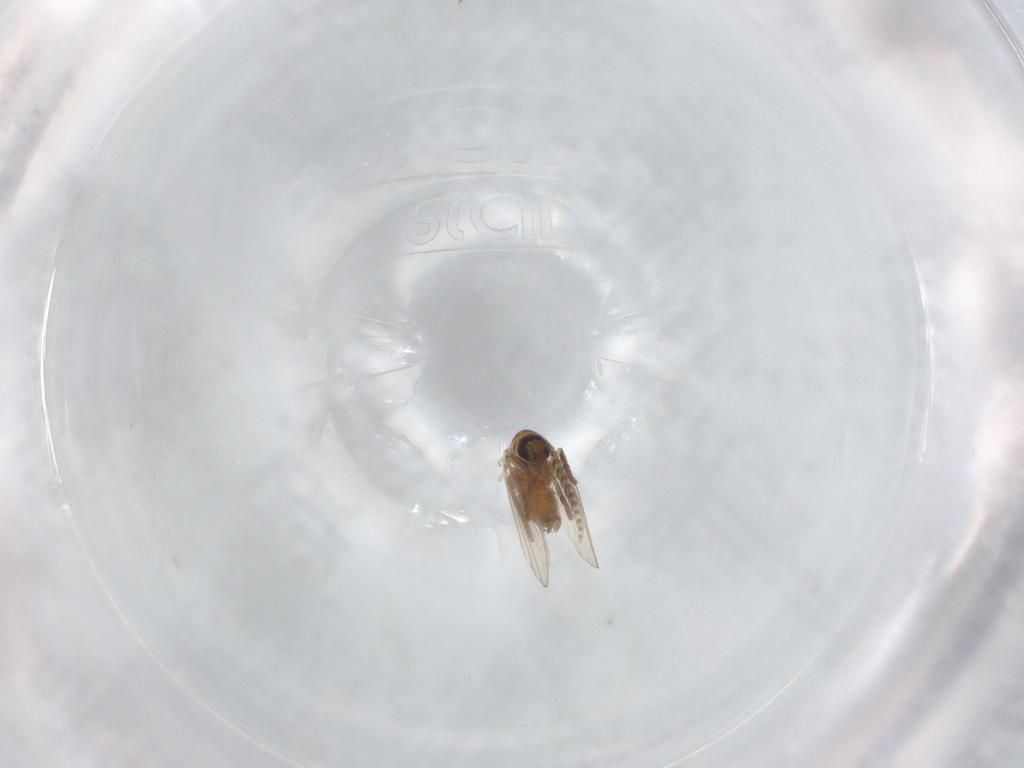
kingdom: Animalia
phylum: Arthropoda
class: Insecta
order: Diptera
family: Psychodidae
